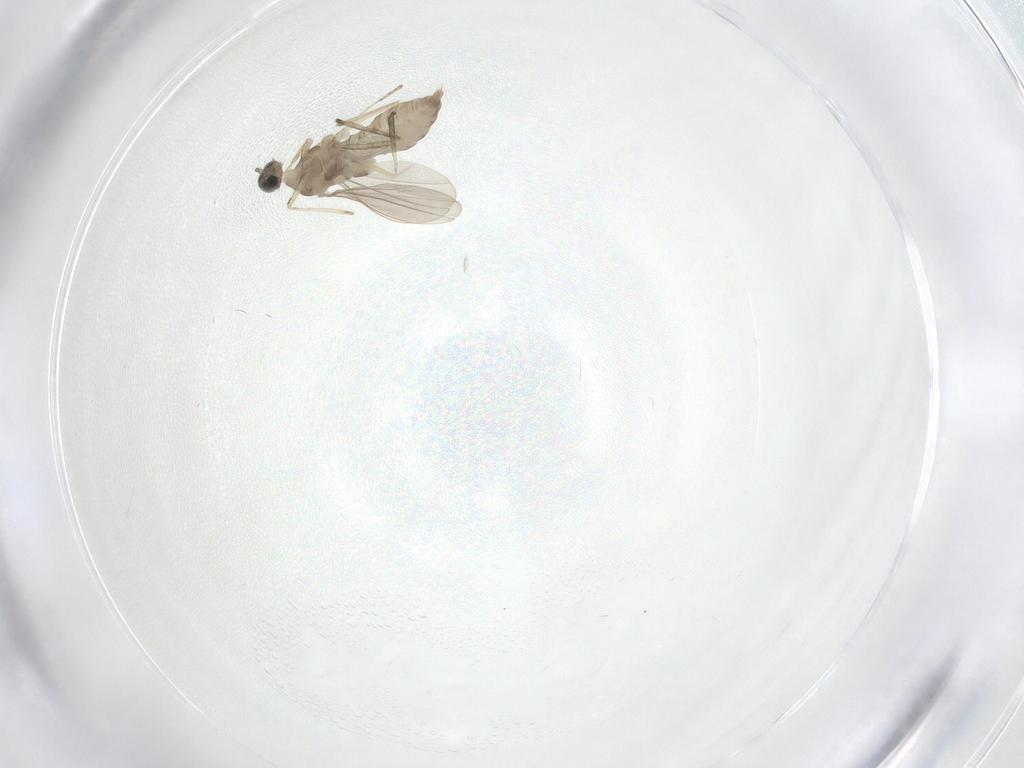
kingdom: Animalia
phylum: Arthropoda
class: Insecta
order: Diptera
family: Cecidomyiidae
